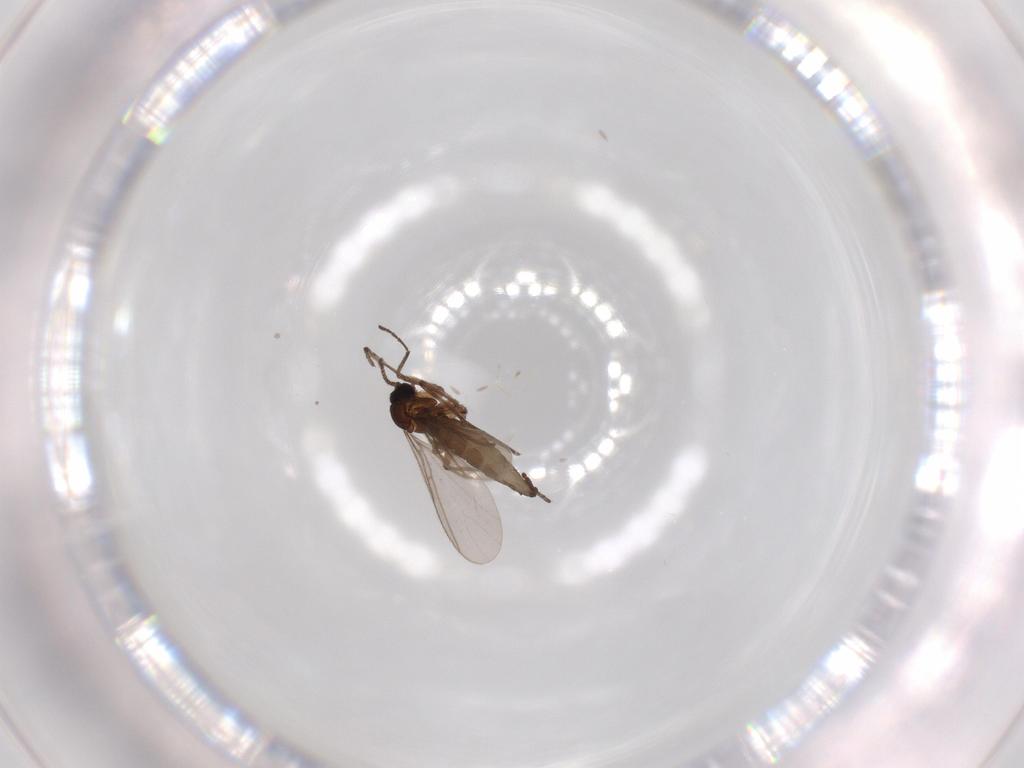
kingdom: Animalia
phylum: Arthropoda
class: Insecta
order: Diptera
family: Sciaridae
